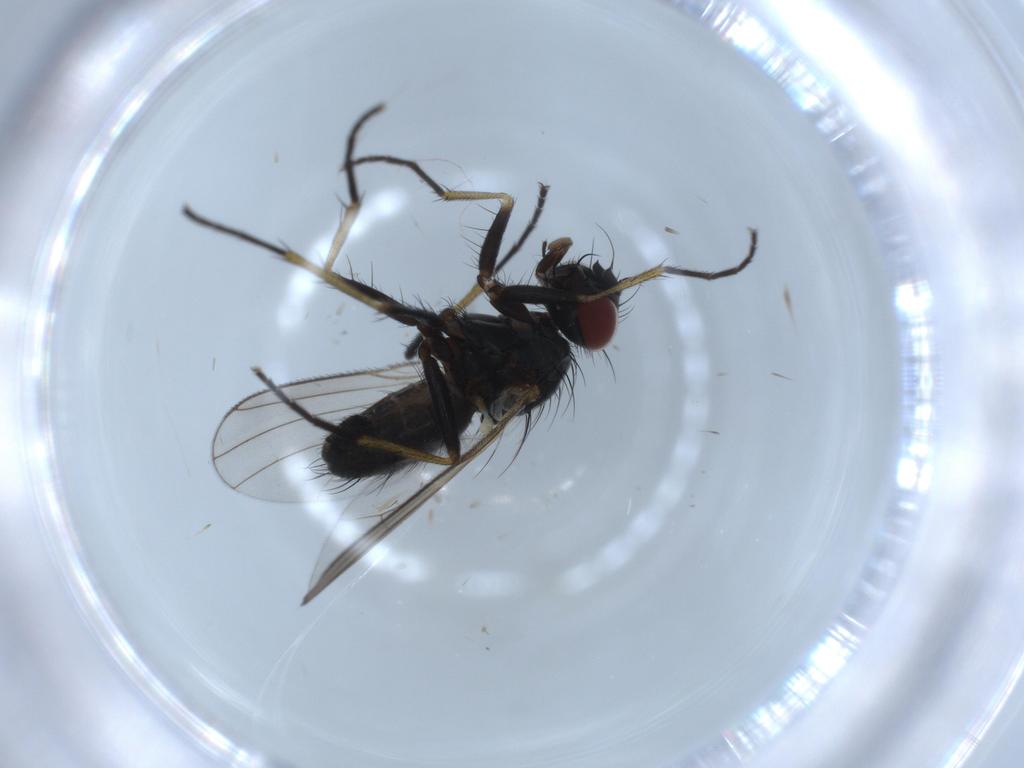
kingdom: Animalia
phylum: Arthropoda
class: Insecta
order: Diptera
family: Muscidae
